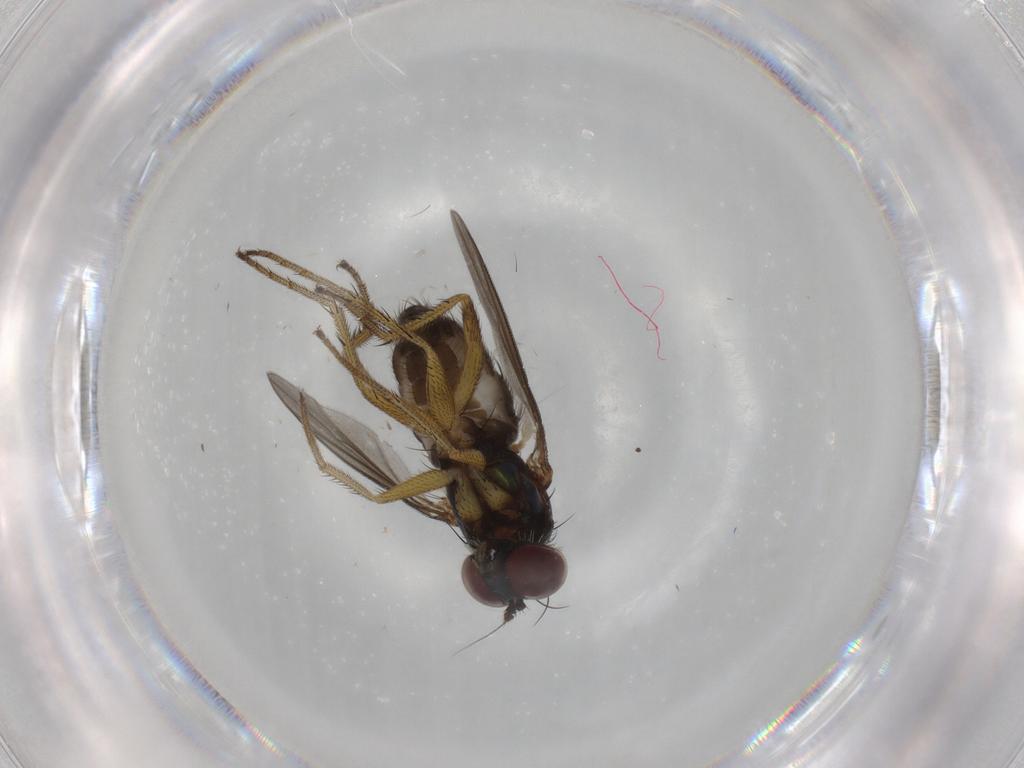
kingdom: Animalia
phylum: Arthropoda
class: Insecta
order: Diptera
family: Dolichopodidae
